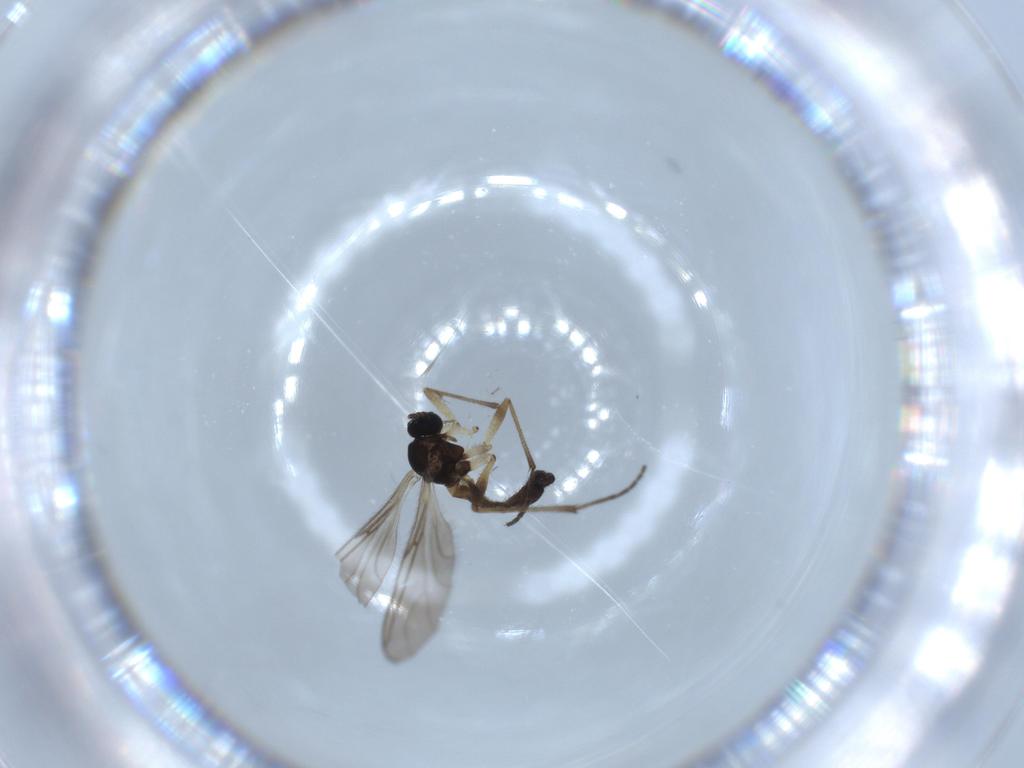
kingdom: Animalia
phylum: Arthropoda
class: Insecta
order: Diptera
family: Sciaridae
